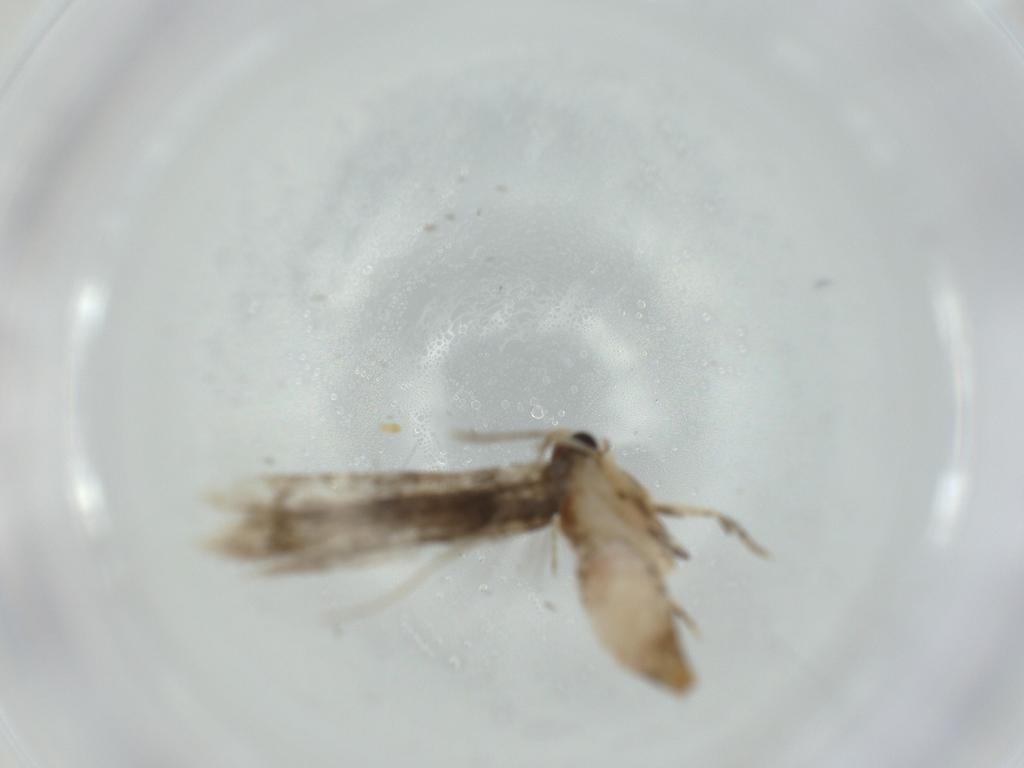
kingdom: Animalia
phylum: Arthropoda
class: Insecta
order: Lepidoptera
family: Tineidae
